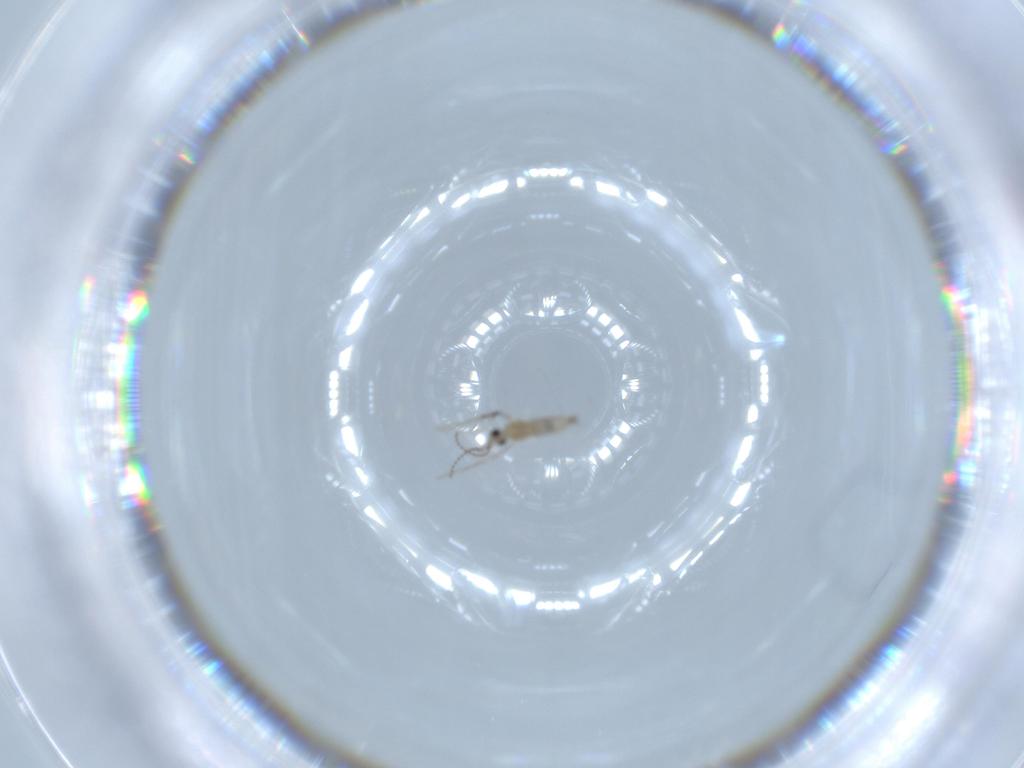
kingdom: Animalia
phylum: Arthropoda
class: Insecta
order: Diptera
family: Cecidomyiidae
